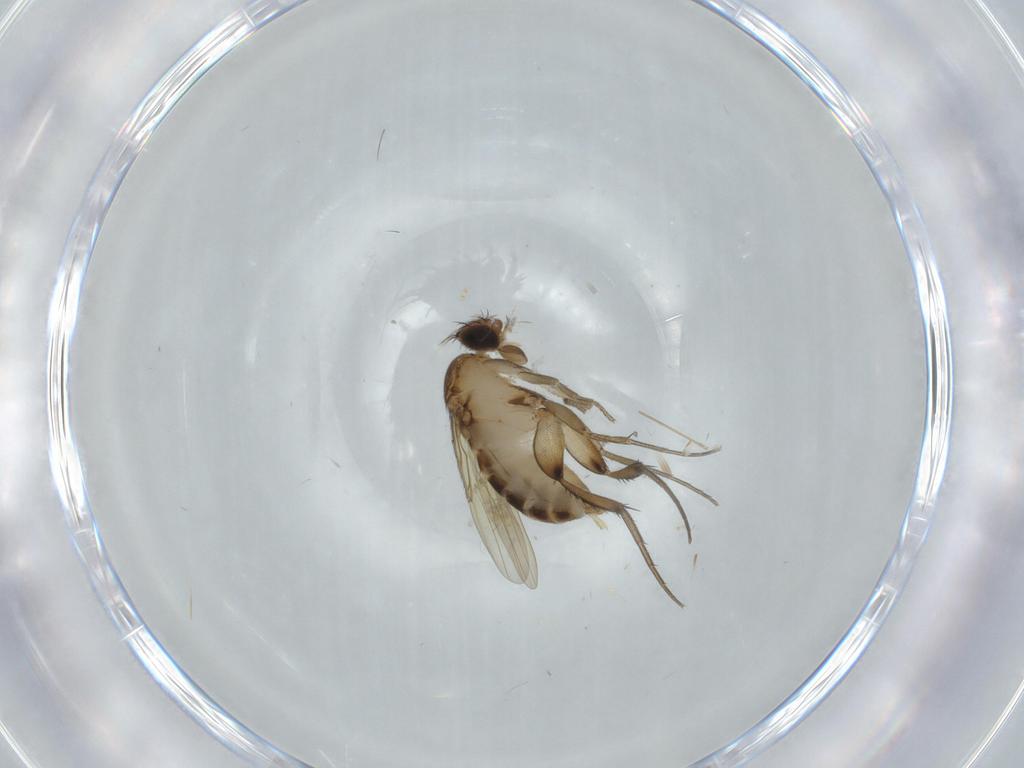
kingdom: Animalia
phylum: Arthropoda
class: Insecta
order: Diptera
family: Phoridae
